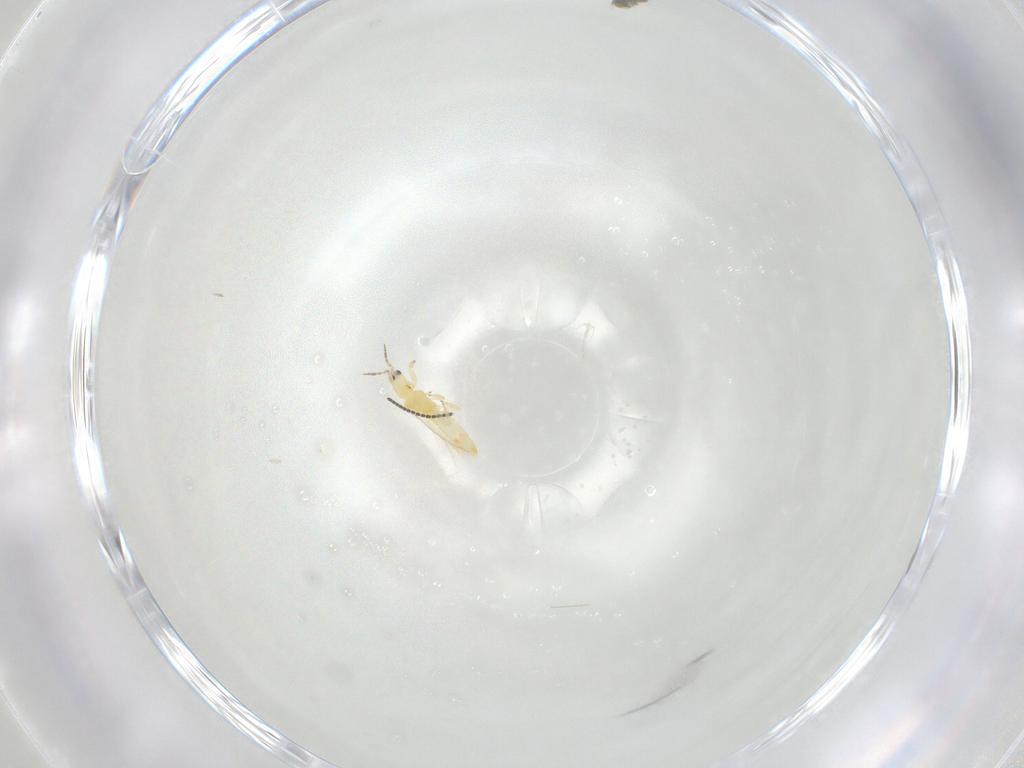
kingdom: Animalia
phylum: Arthropoda
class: Insecta
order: Thysanoptera
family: Melanthripidae
